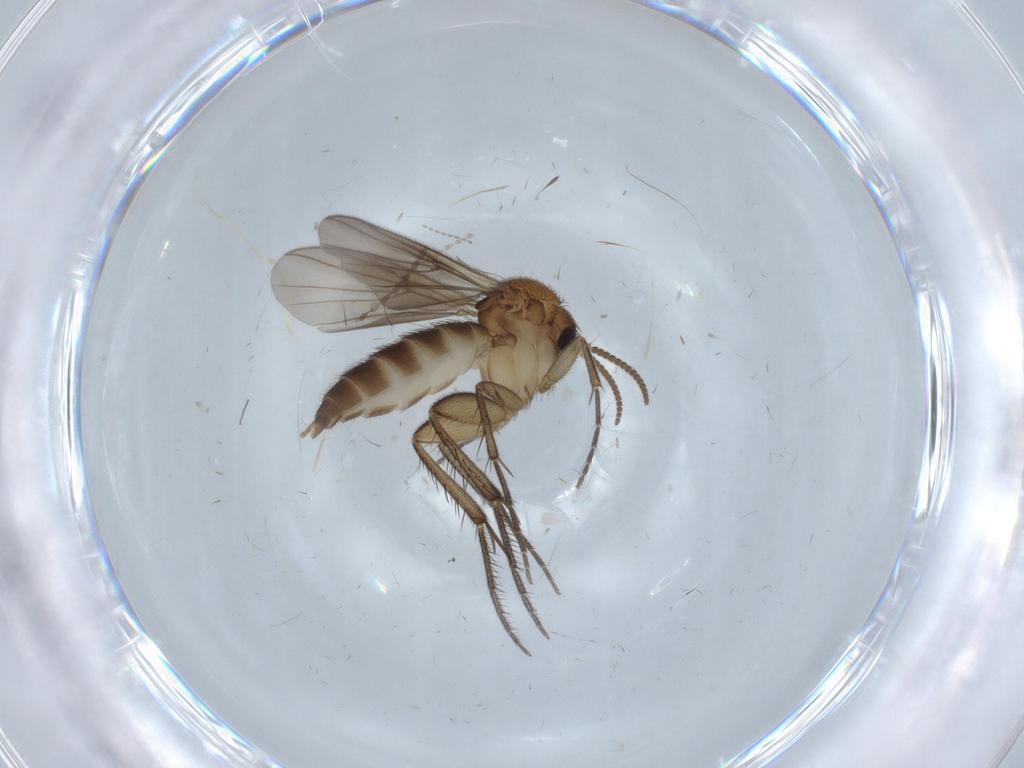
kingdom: Animalia
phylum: Arthropoda
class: Insecta
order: Diptera
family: Mycetophilidae
